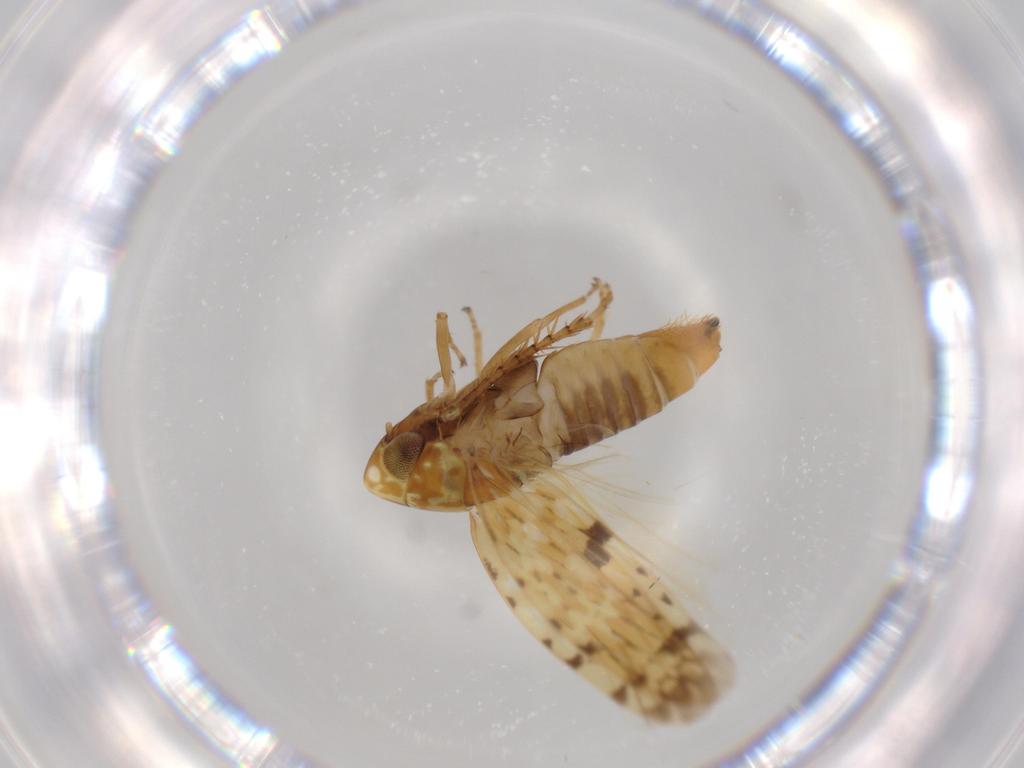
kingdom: Animalia
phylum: Arthropoda
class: Insecta
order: Hemiptera
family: Cicadellidae
